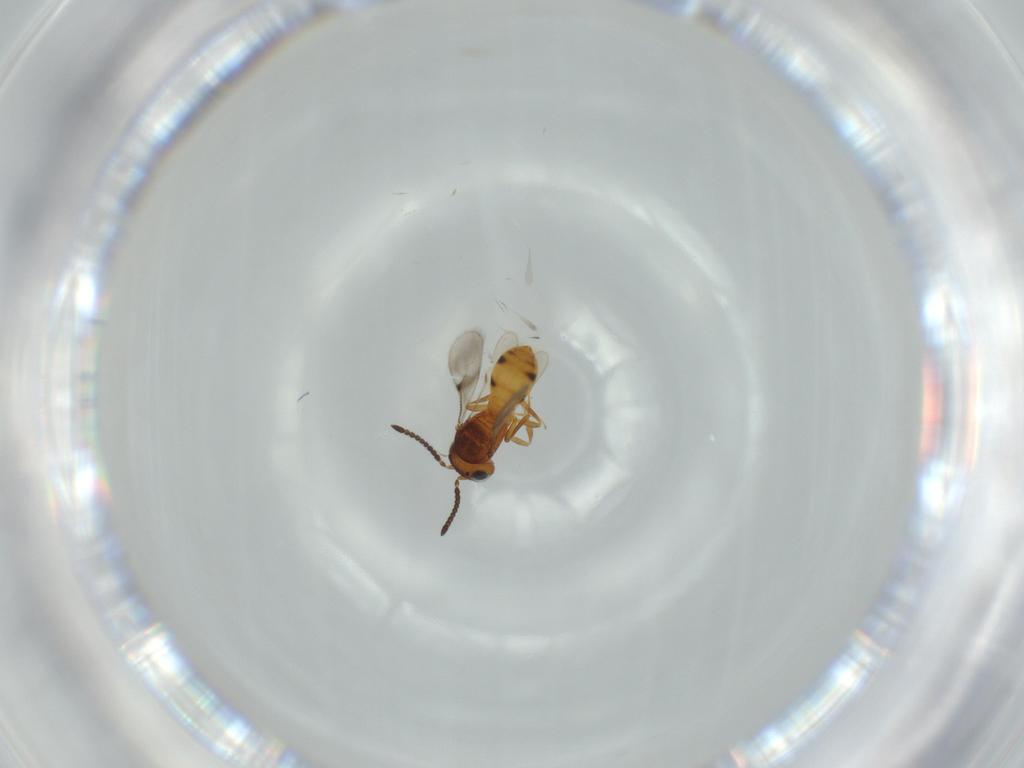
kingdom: Animalia
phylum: Arthropoda
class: Insecta
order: Hymenoptera
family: Scelionidae
